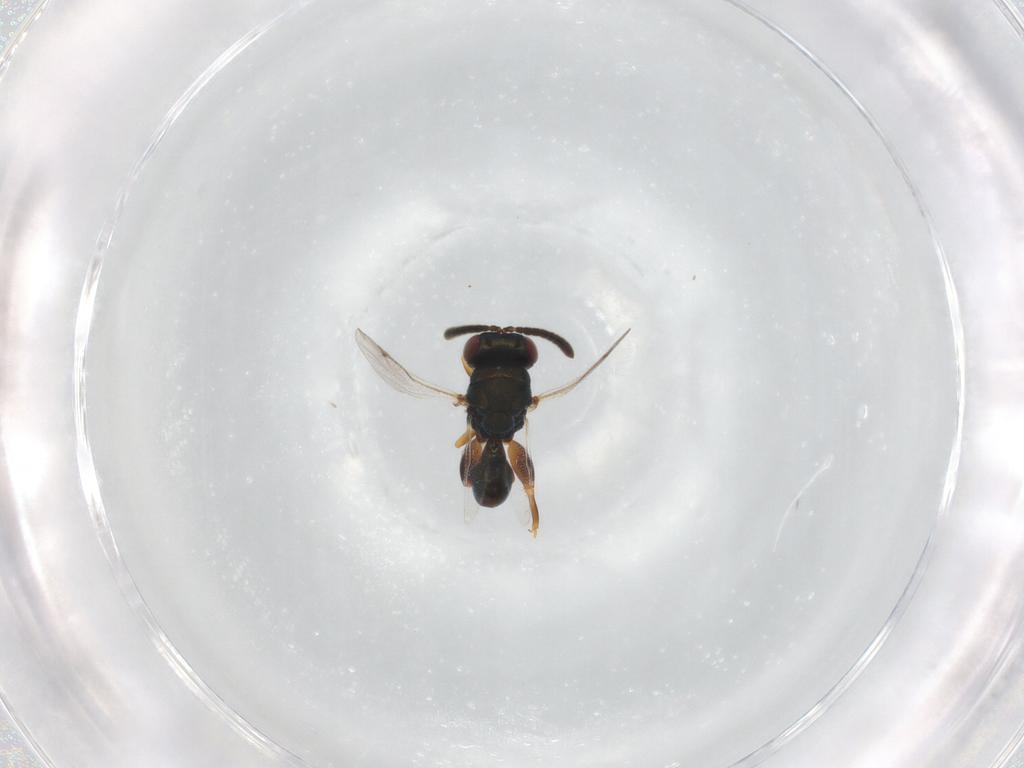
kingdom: Animalia
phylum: Arthropoda
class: Insecta
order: Hymenoptera
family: Torymidae
